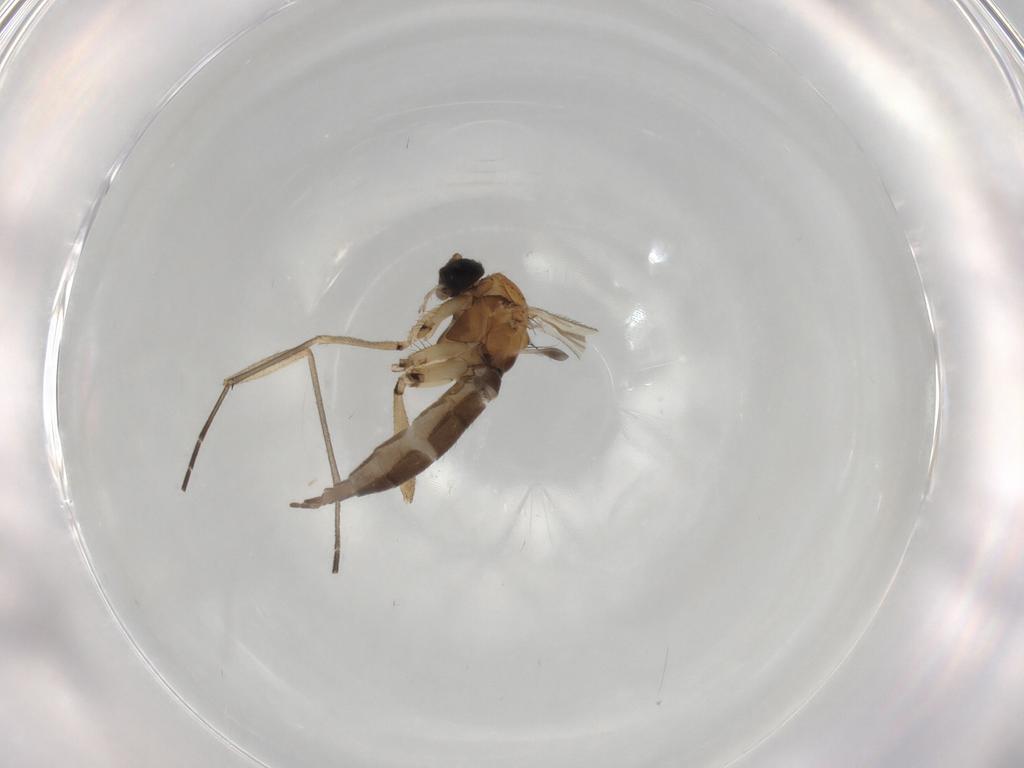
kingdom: Animalia
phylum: Arthropoda
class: Insecta
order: Diptera
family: Sciaridae
